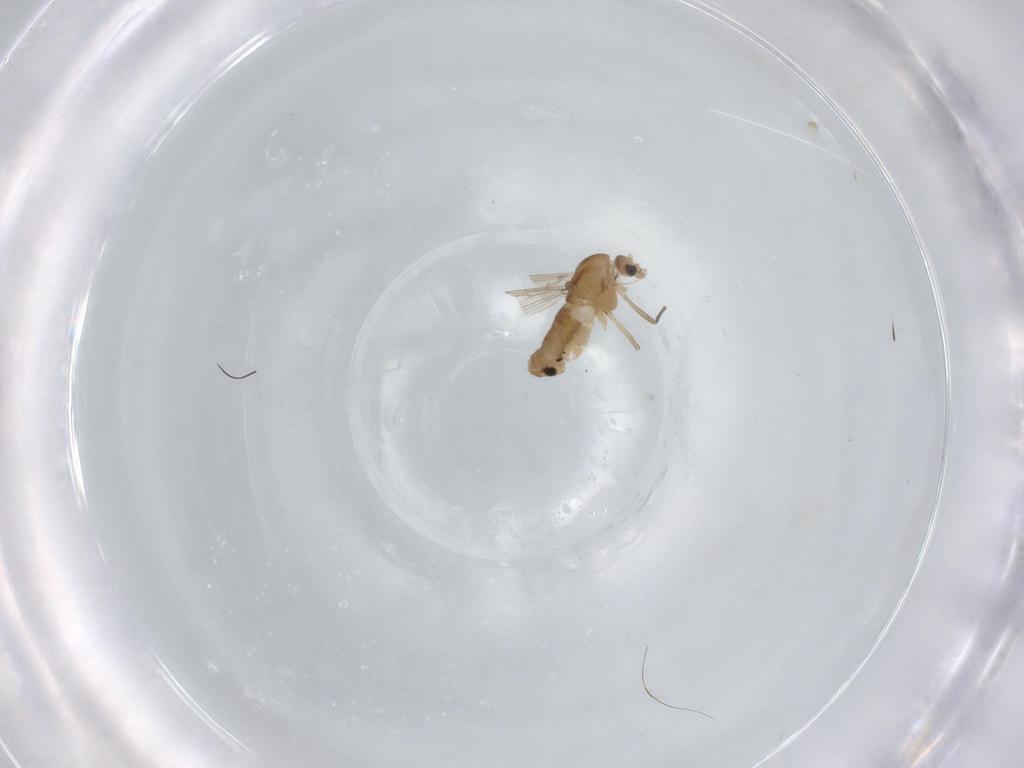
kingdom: Animalia
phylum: Arthropoda
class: Insecta
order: Diptera
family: Chironomidae
